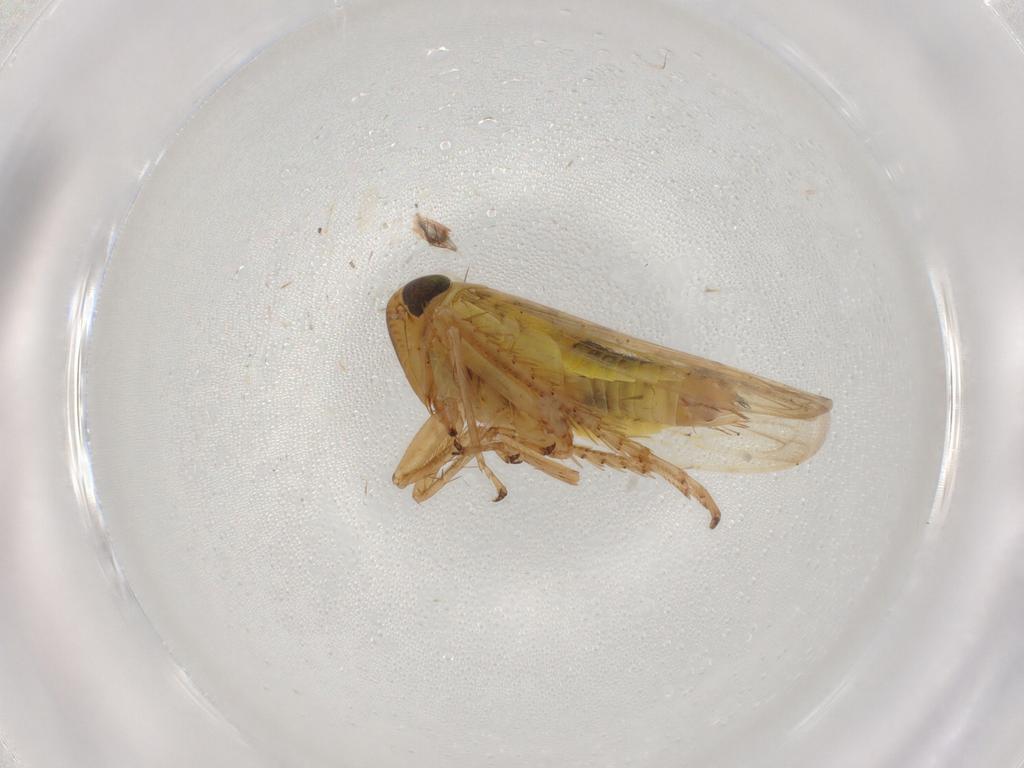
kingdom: Animalia
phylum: Arthropoda
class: Insecta
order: Hemiptera
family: Cicadellidae
